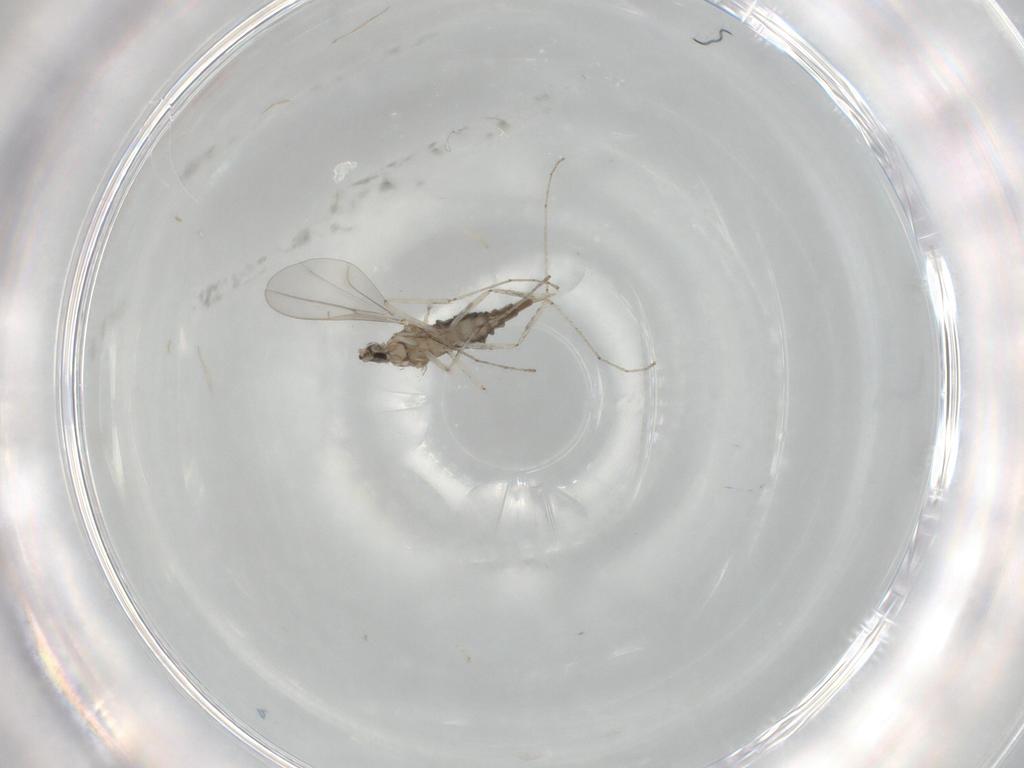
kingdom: Animalia
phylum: Arthropoda
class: Insecta
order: Diptera
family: Cecidomyiidae
